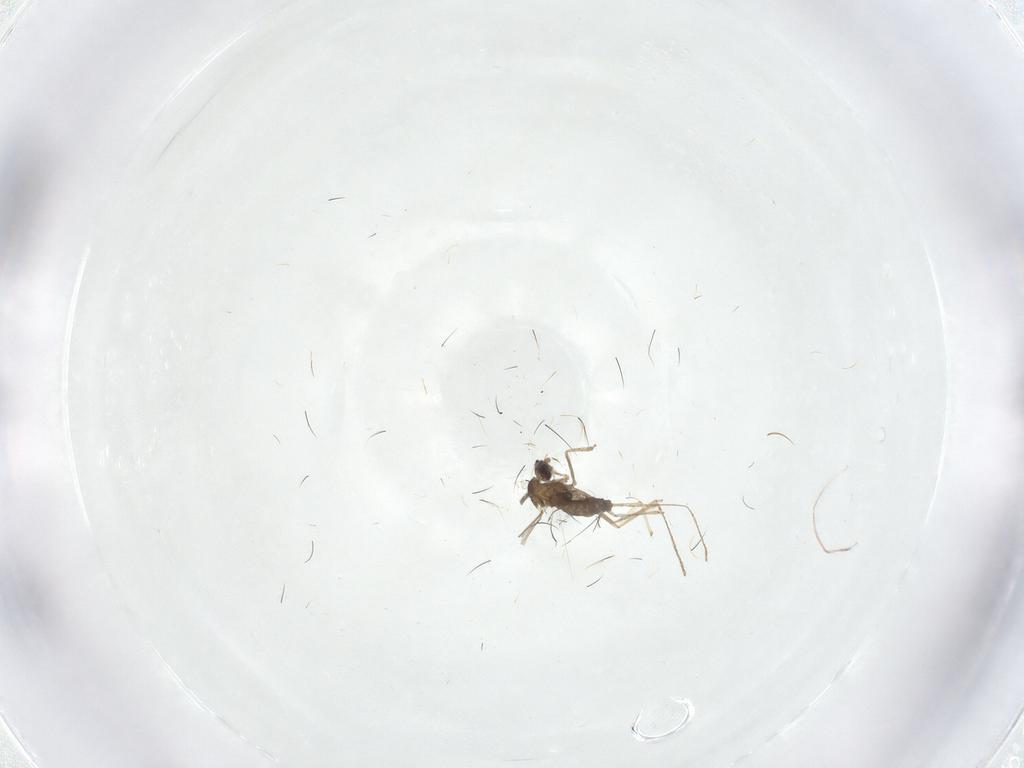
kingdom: Animalia
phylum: Arthropoda
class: Insecta
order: Diptera
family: Cecidomyiidae
